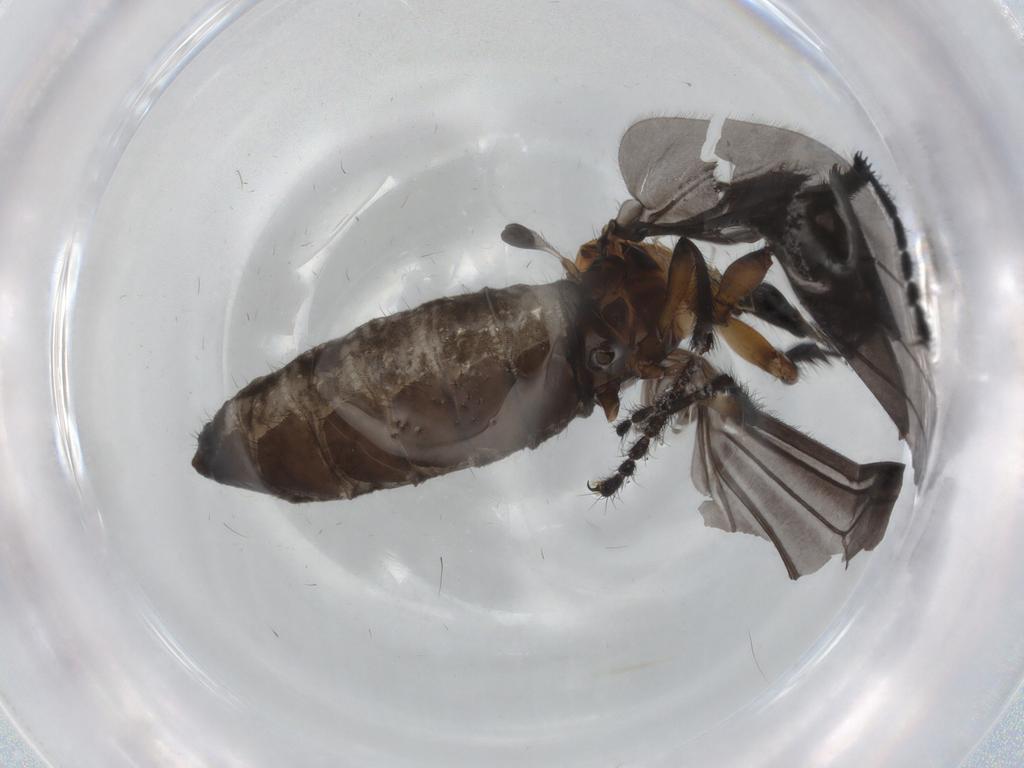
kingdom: Animalia
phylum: Arthropoda
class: Insecta
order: Diptera
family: Bibionidae
